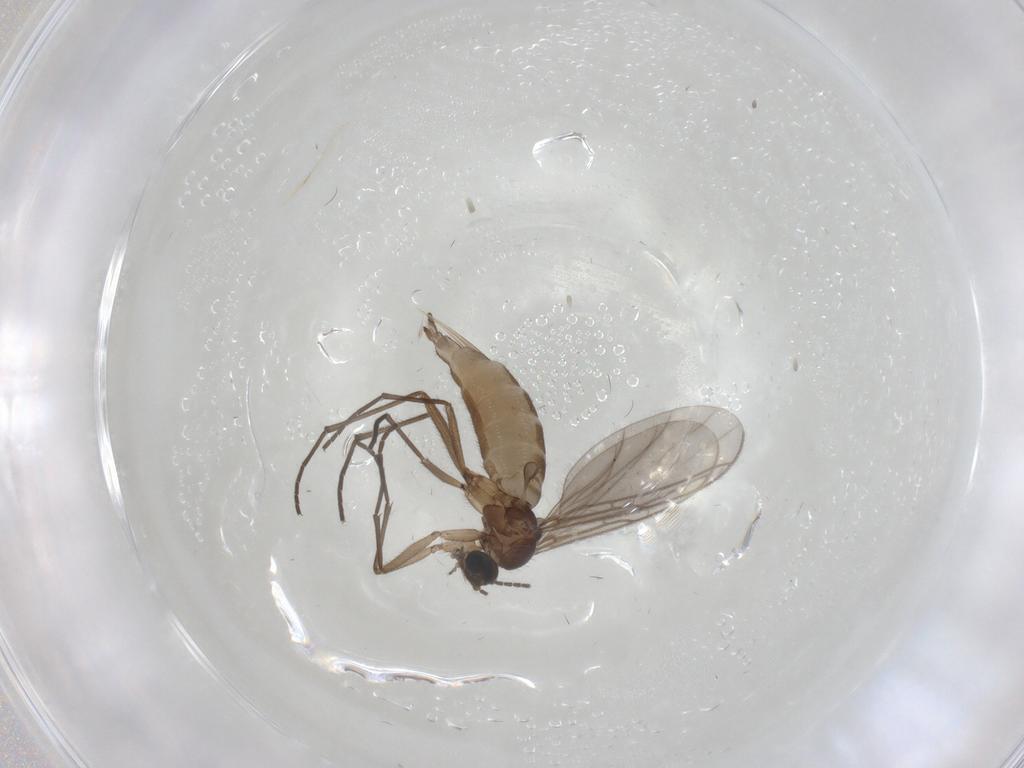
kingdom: Animalia
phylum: Arthropoda
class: Insecta
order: Diptera
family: Sciaridae
